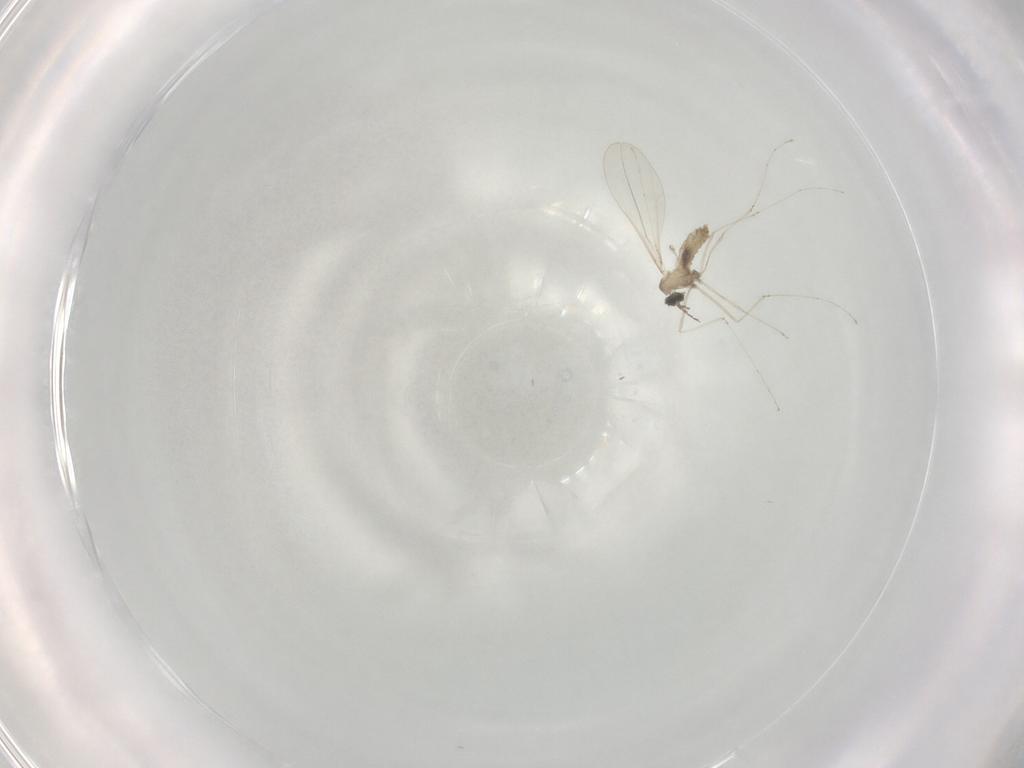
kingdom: Animalia
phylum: Arthropoda
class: Insecta
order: Diptera
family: Cecidomyiidae
